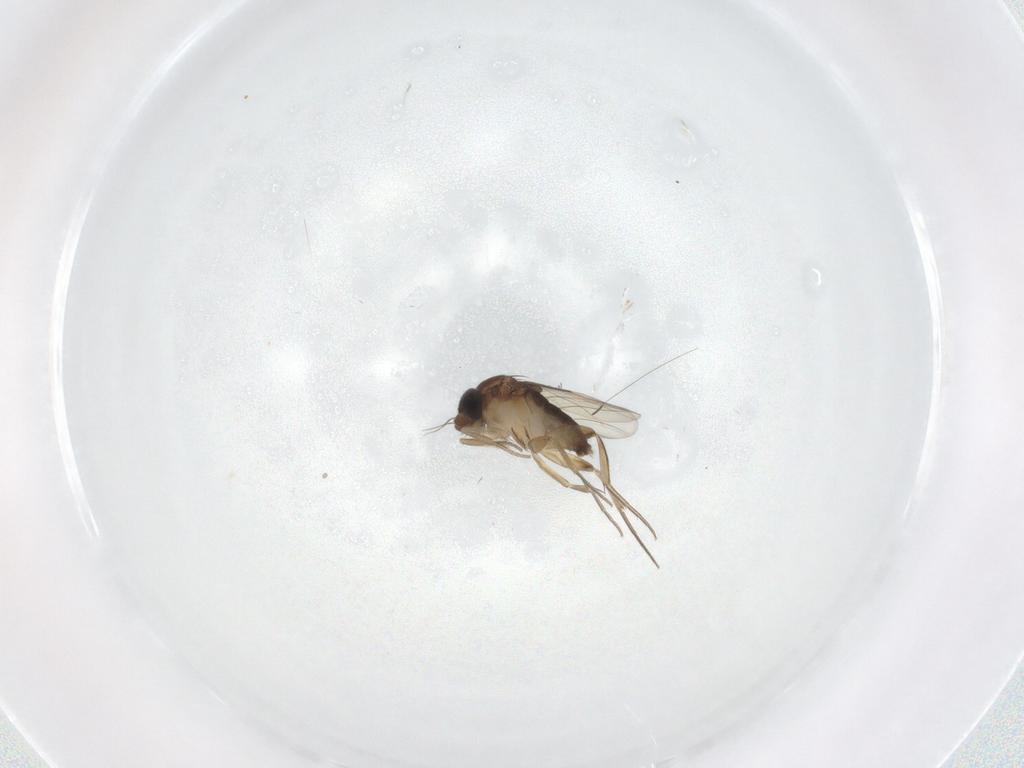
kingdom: Animalia
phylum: Arthropoda
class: Insecta
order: Diptera
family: Phoridae
